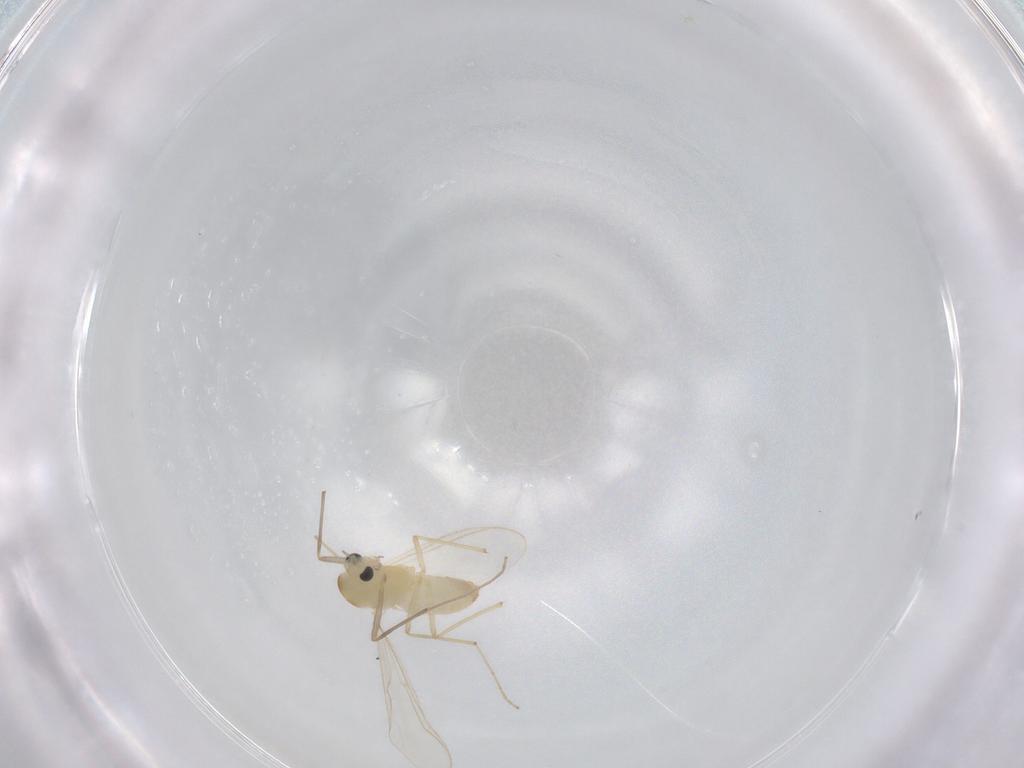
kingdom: Animalia
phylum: Arthropoda
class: Insecta
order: Diptera
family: Chironomidae
